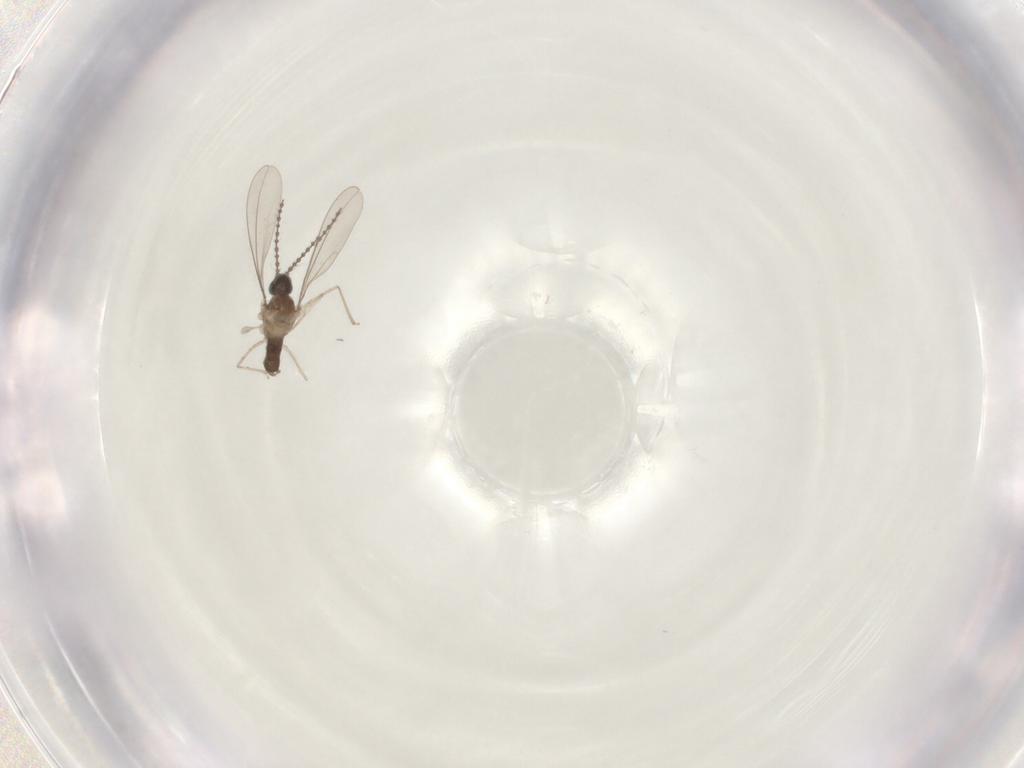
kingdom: Animalia
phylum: Arthropoda
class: Insecta
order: Diptera
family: Cecidomyiidae
